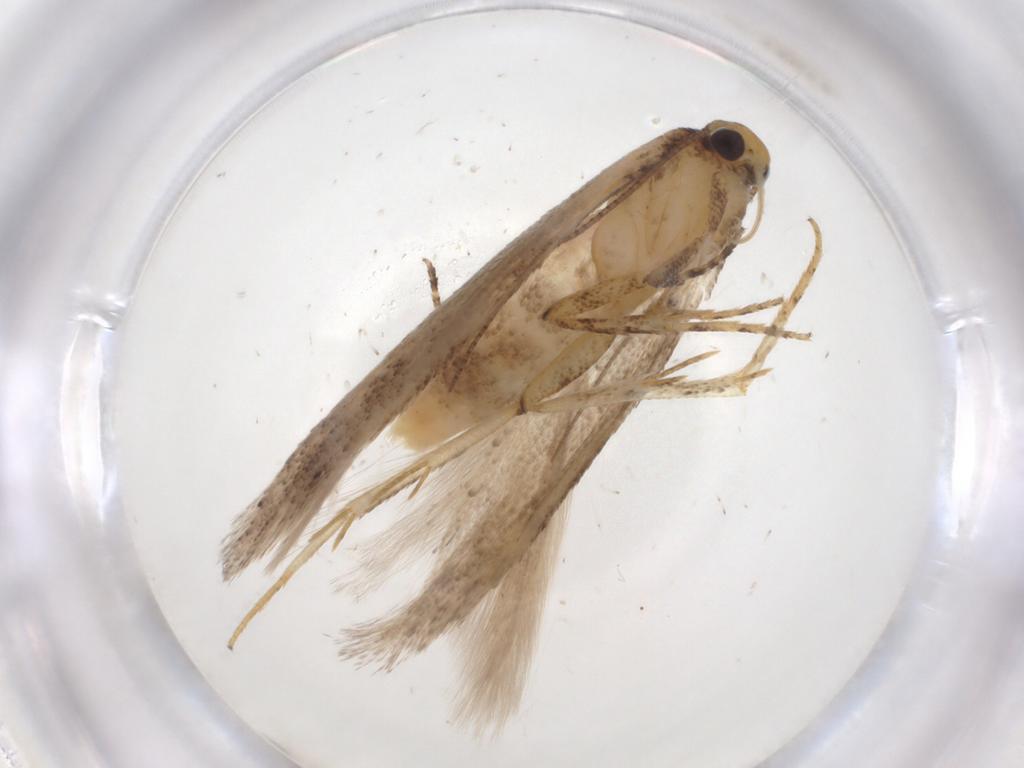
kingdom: Animalia
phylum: Arthropoda
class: Insecta
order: Lepidoptera
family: Gelechiidae
